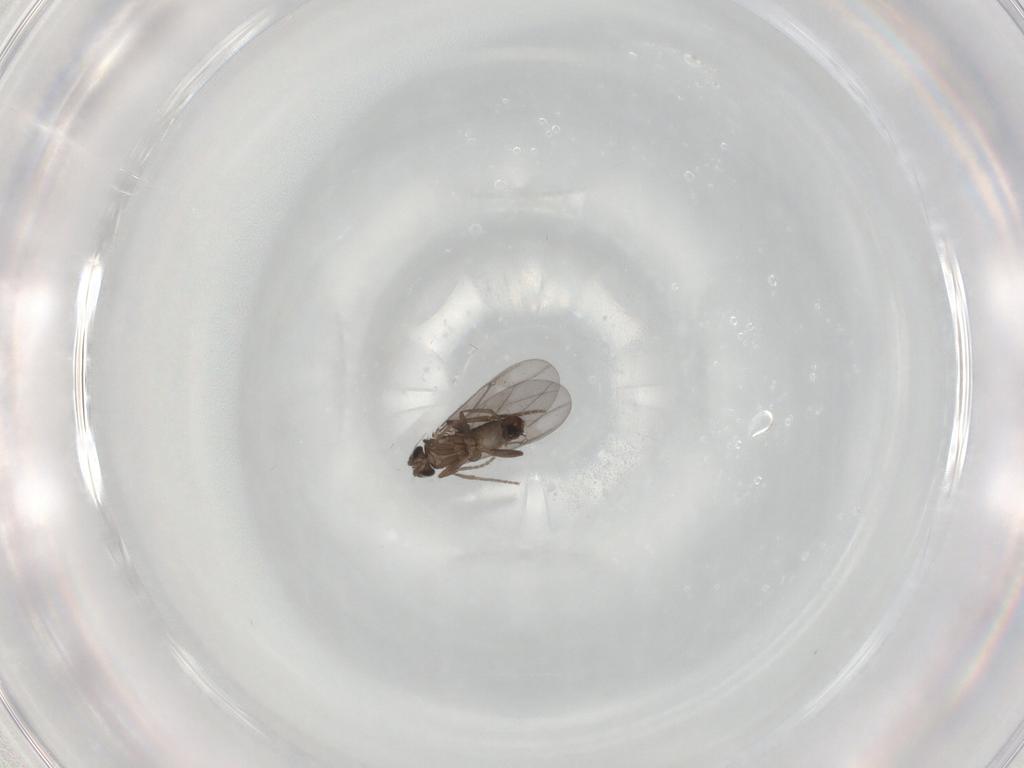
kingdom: Animalia
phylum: Arthropoda
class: Insecta
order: Diptera
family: Phoridae
